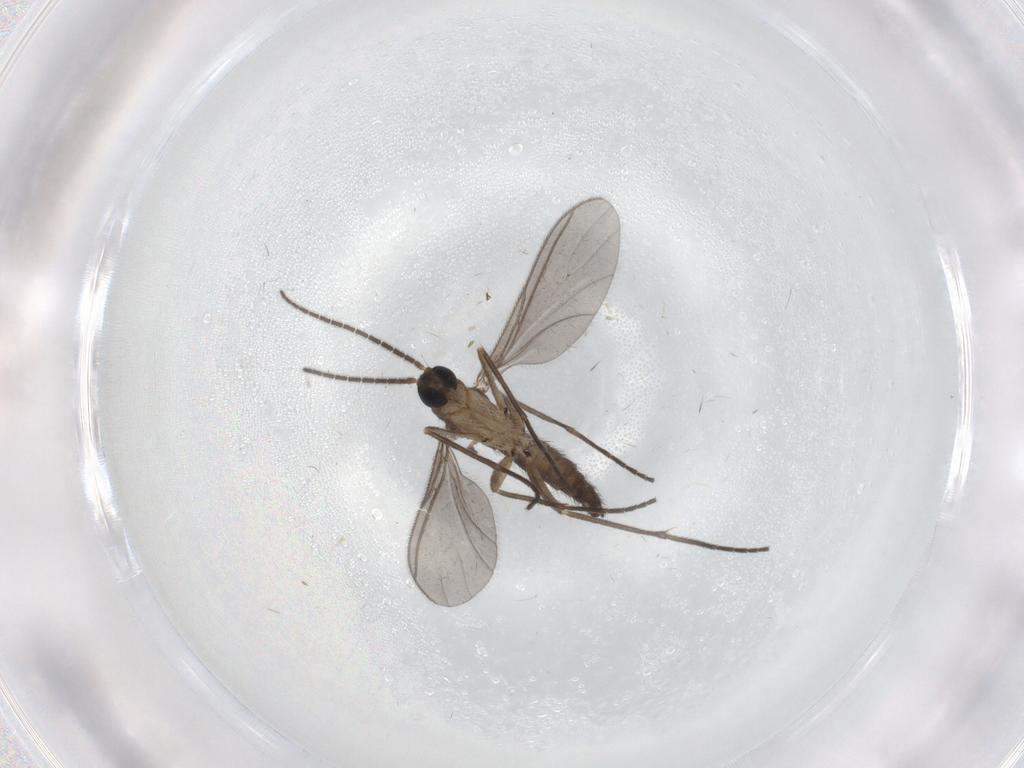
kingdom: Animalia
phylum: Arthropoda
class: Insecta
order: Diptera
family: Sciaridae
